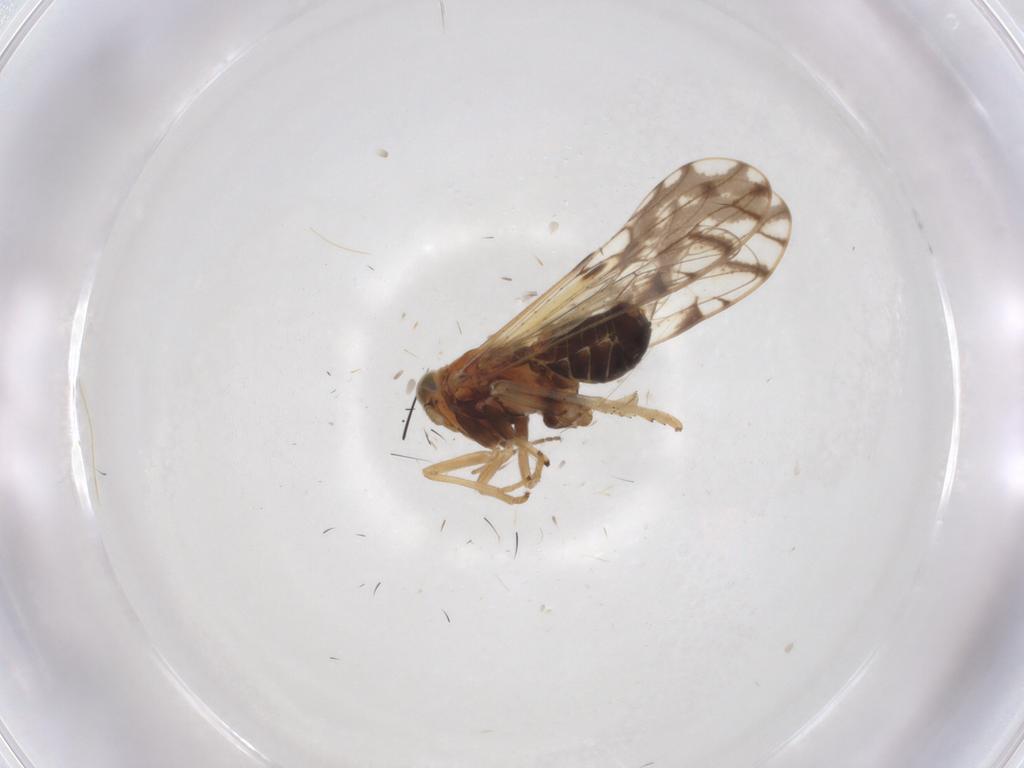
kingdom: Animalia
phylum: Arthropoda
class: Insecta
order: Hemiptera
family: Delphacidae
